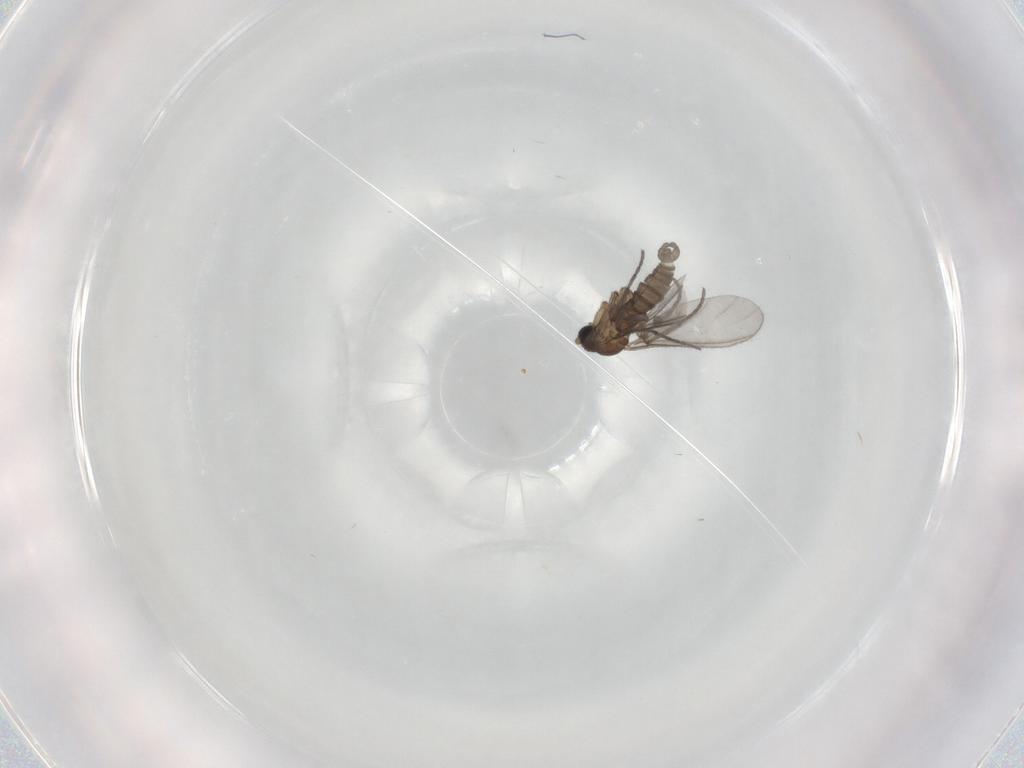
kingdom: Animalia
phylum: Arthropoda
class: Insecta
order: Diptera
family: Sciaridae
